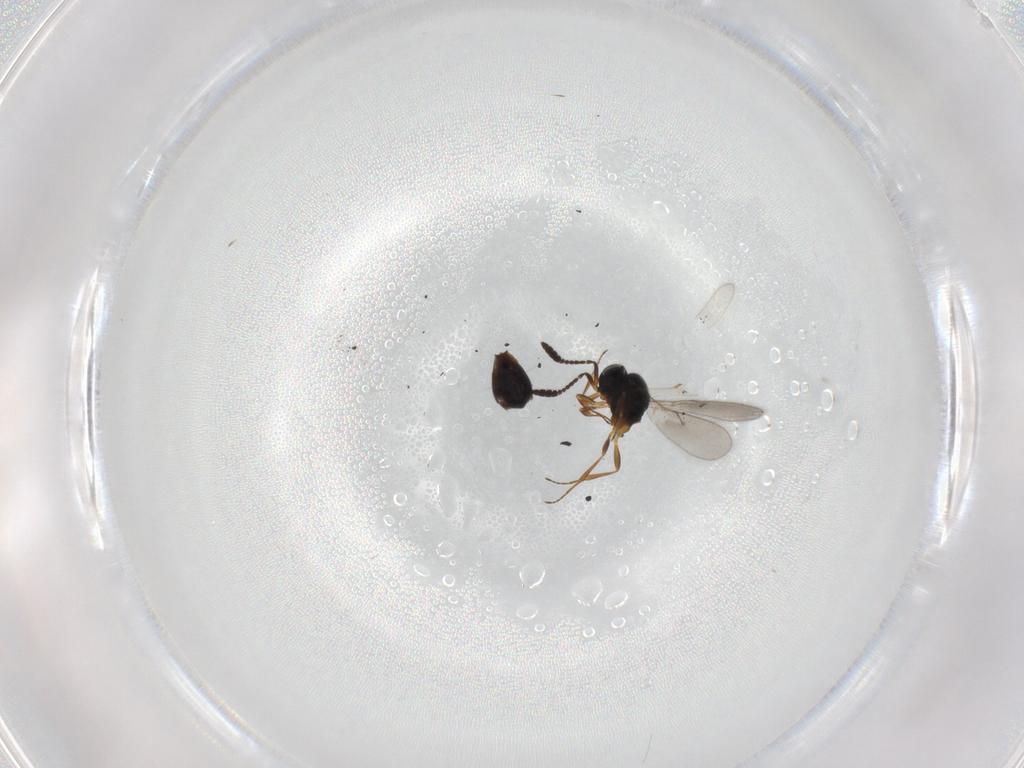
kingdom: Animalia
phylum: Arthropoda
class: Insecta
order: Hymenoptera
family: Scelionidae
